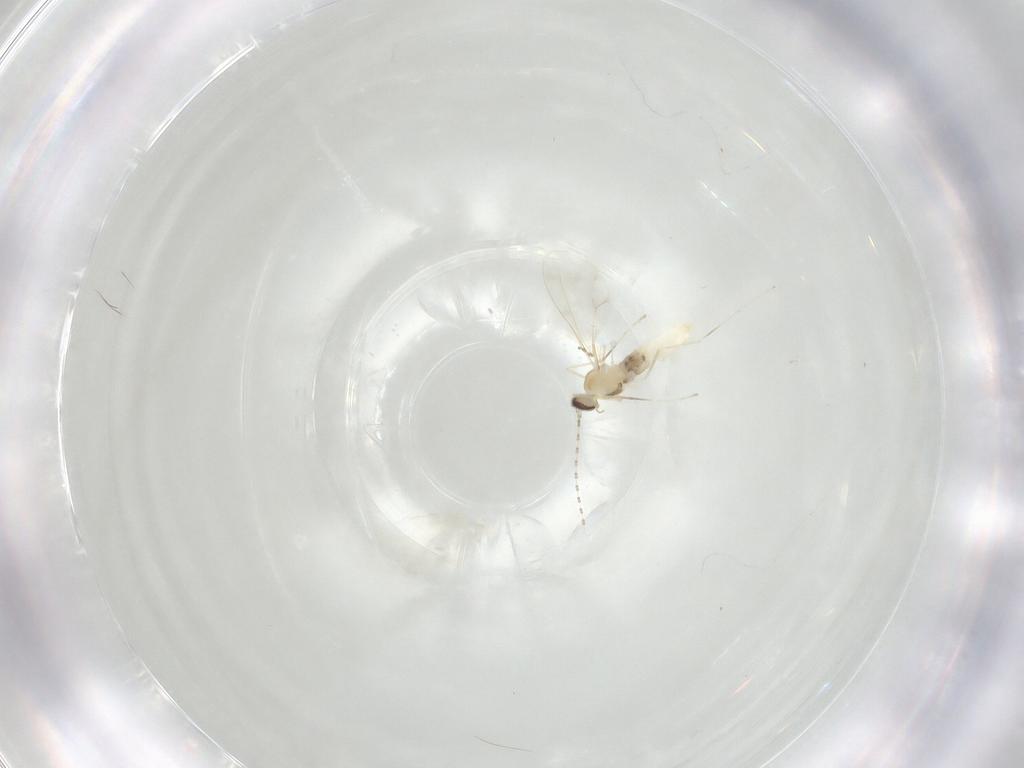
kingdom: Animalia
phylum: Arthropoda
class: Insecta
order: Diptera
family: Cecidomyiidae
